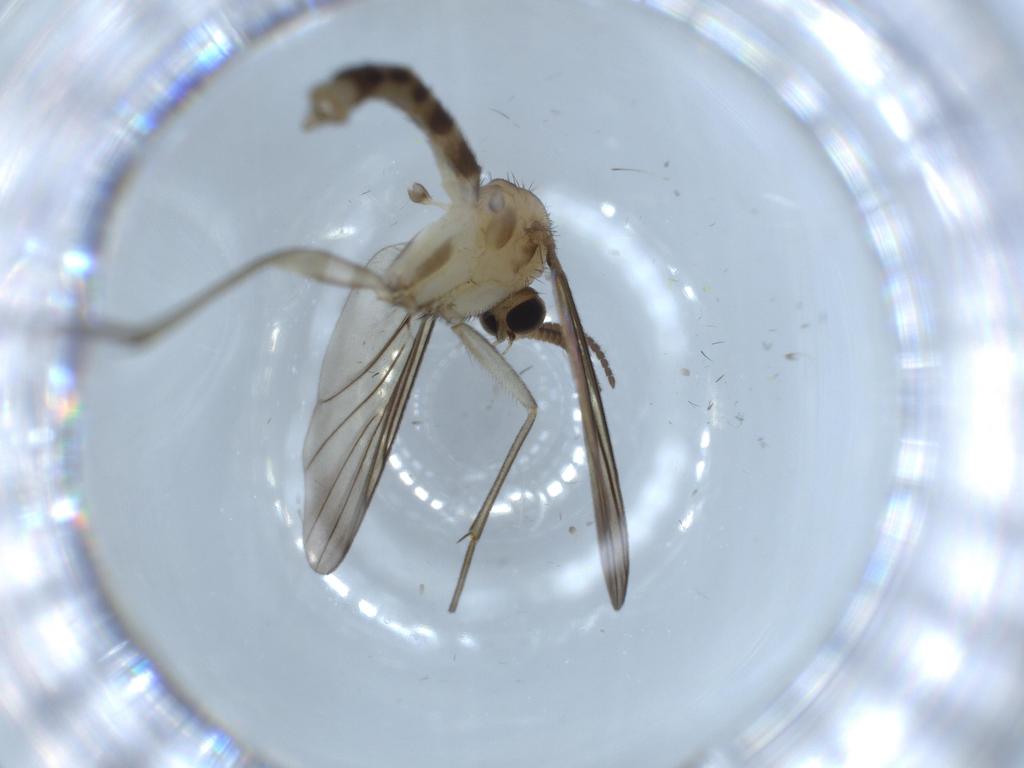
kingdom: Animalia
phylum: Arthropoda
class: Insecta
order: Diptera
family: Mycetophilidae
